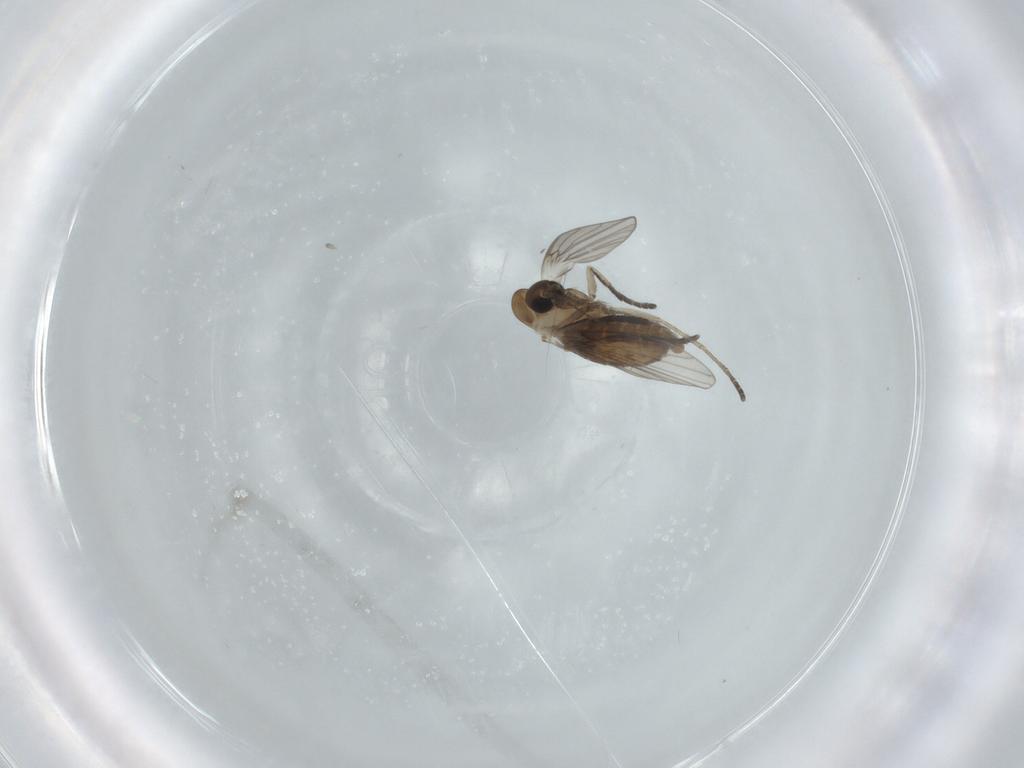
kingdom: Animalia
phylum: Arthropoda
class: Insecta
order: Diptera
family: Psychodidae
